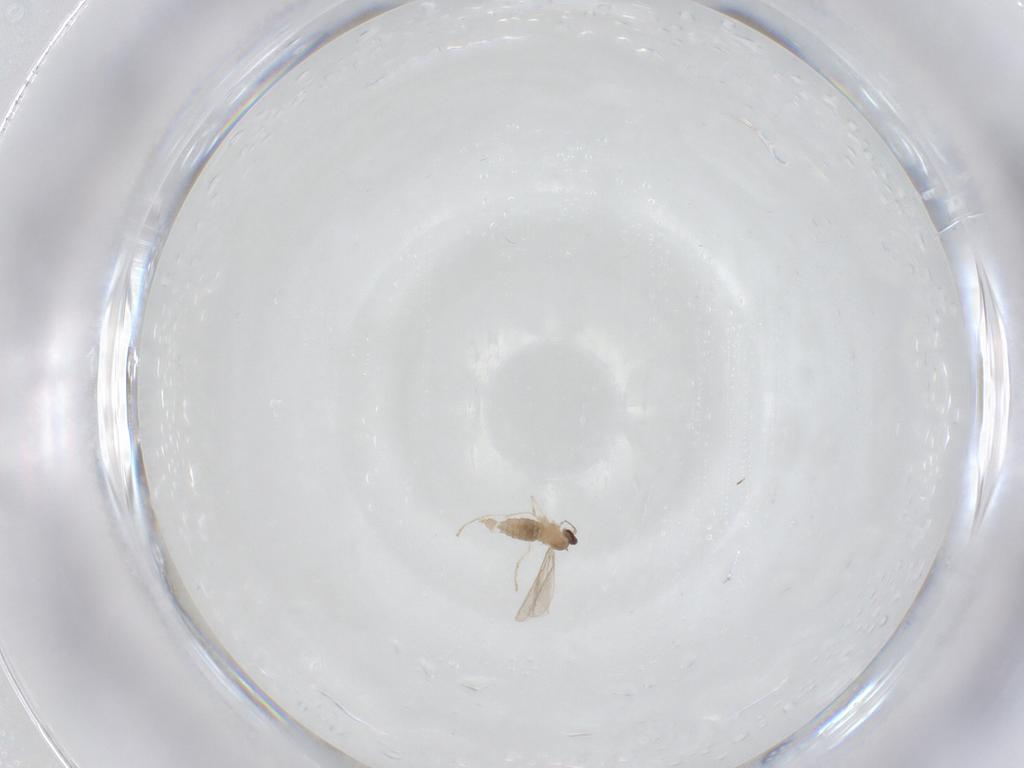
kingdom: Animalia
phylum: Arthropoda
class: Insecta
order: Diptera
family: Cecidomyiidae
